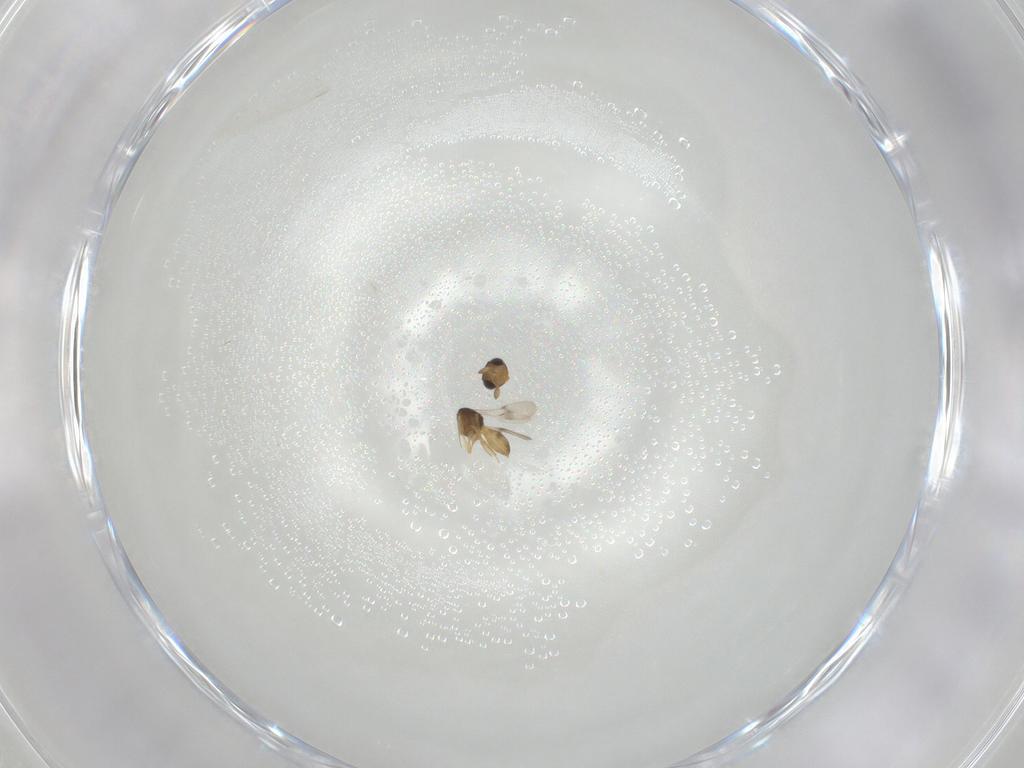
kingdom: Animalia
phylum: Arthropoda
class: Insecta
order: Hymenoptera
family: Scelionidae
